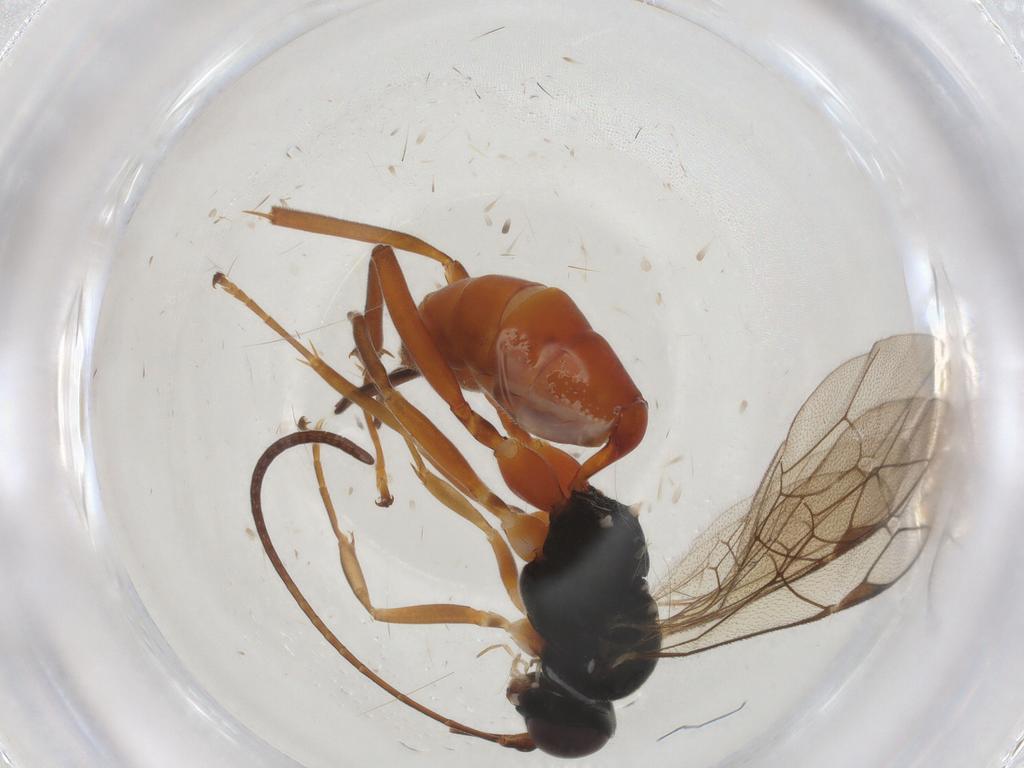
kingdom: Animalia
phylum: Arthropoda
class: Insecta
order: Hymenoptera
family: Ichneumonidae
